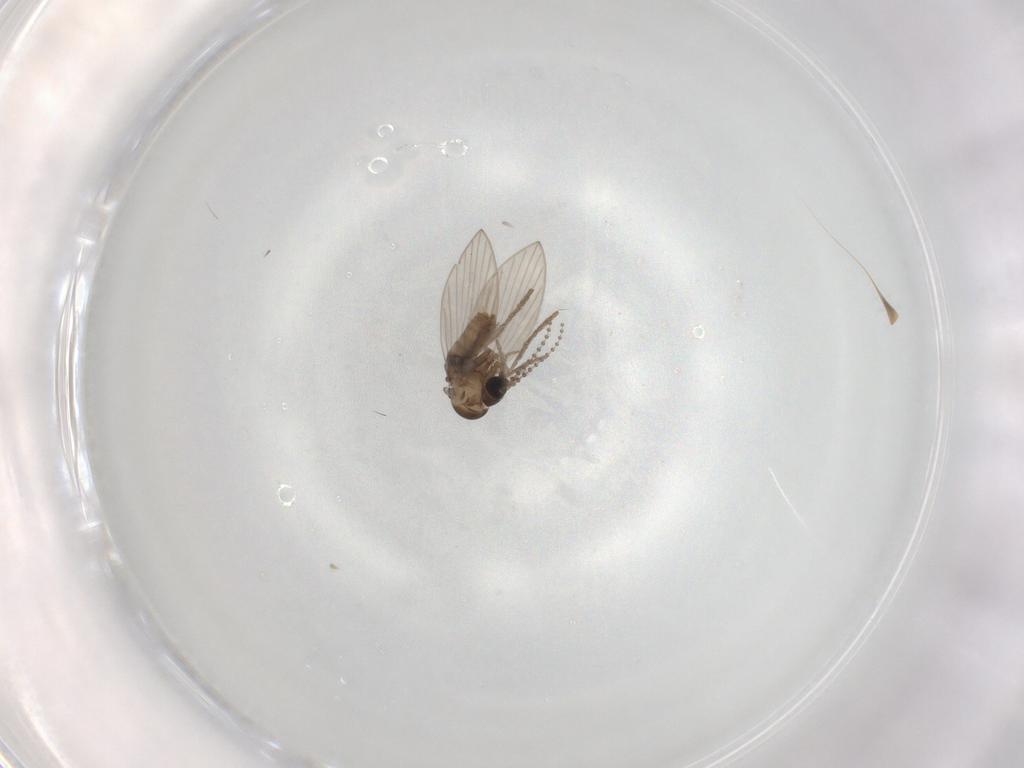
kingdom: Animalia
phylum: Arthropoda
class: Insecta
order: Diptera
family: Psychodidae
